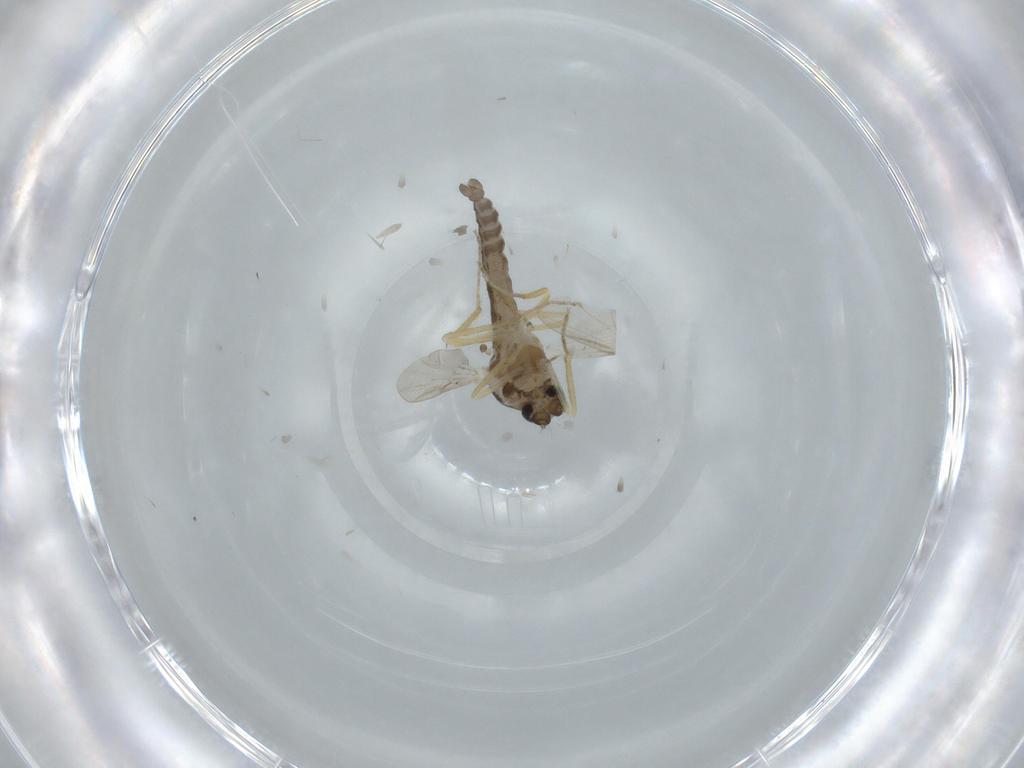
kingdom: Animalia
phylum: Arthropoda
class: Insecta
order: Diptera
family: Ceratopogonidae
